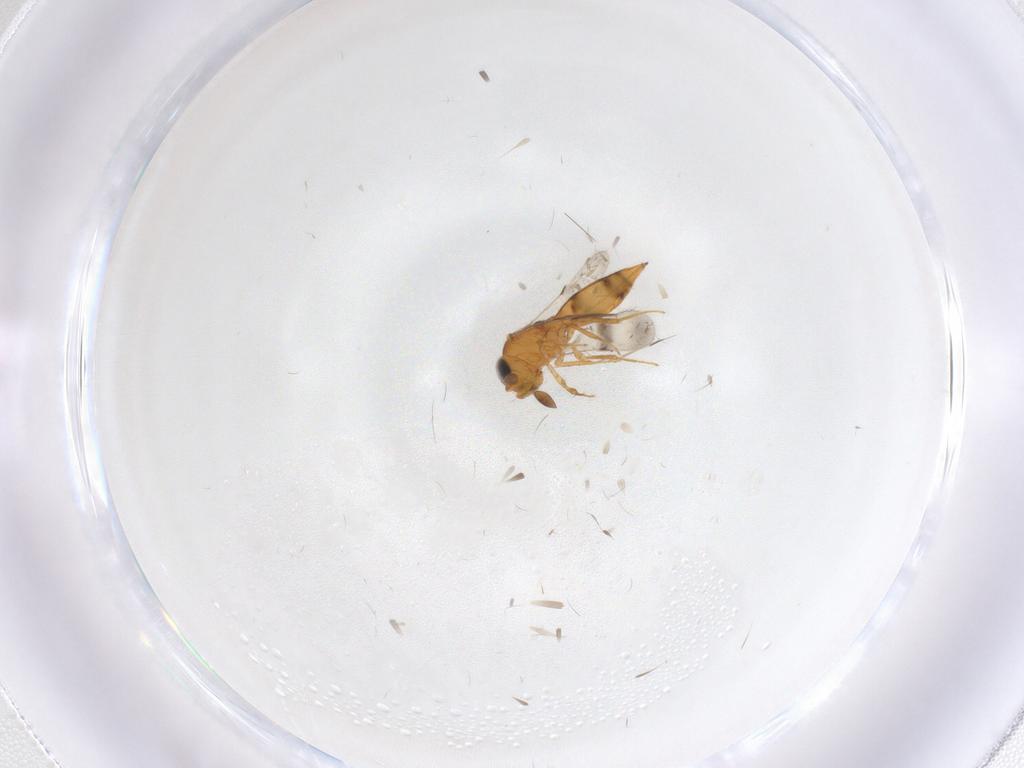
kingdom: Animalia
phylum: Arthropoda
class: Insecta
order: Hymenoptera
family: Scelionidae
